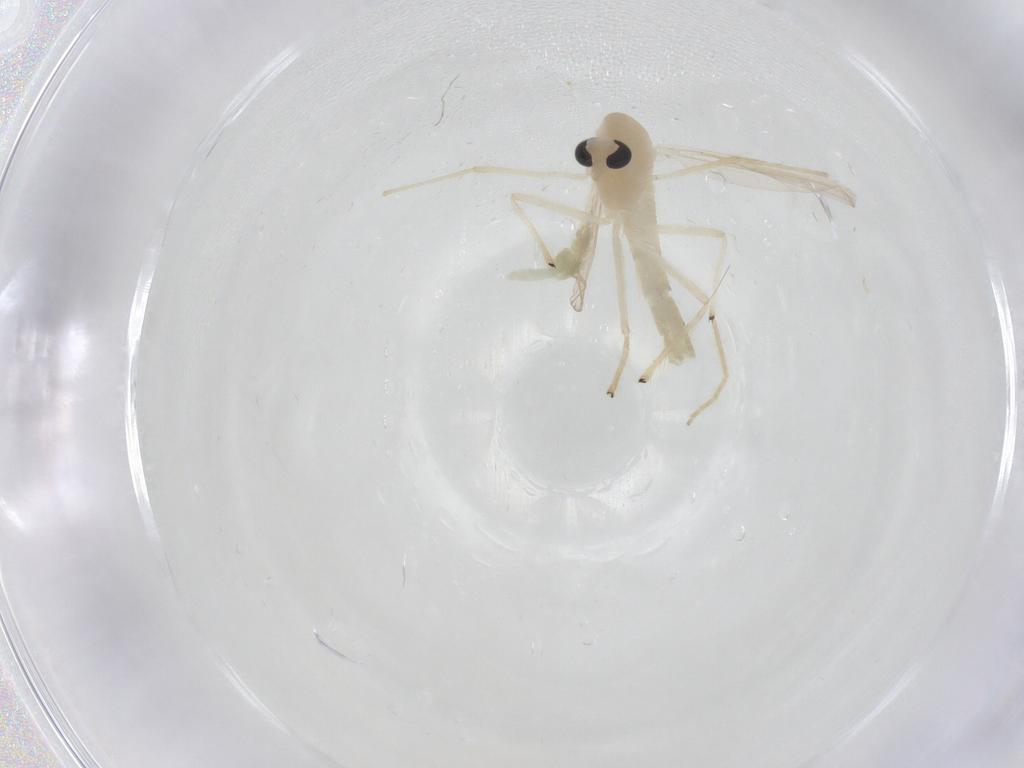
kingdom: Animalia
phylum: Arthropoda
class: Insecta
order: Diptera
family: Chironomidae
